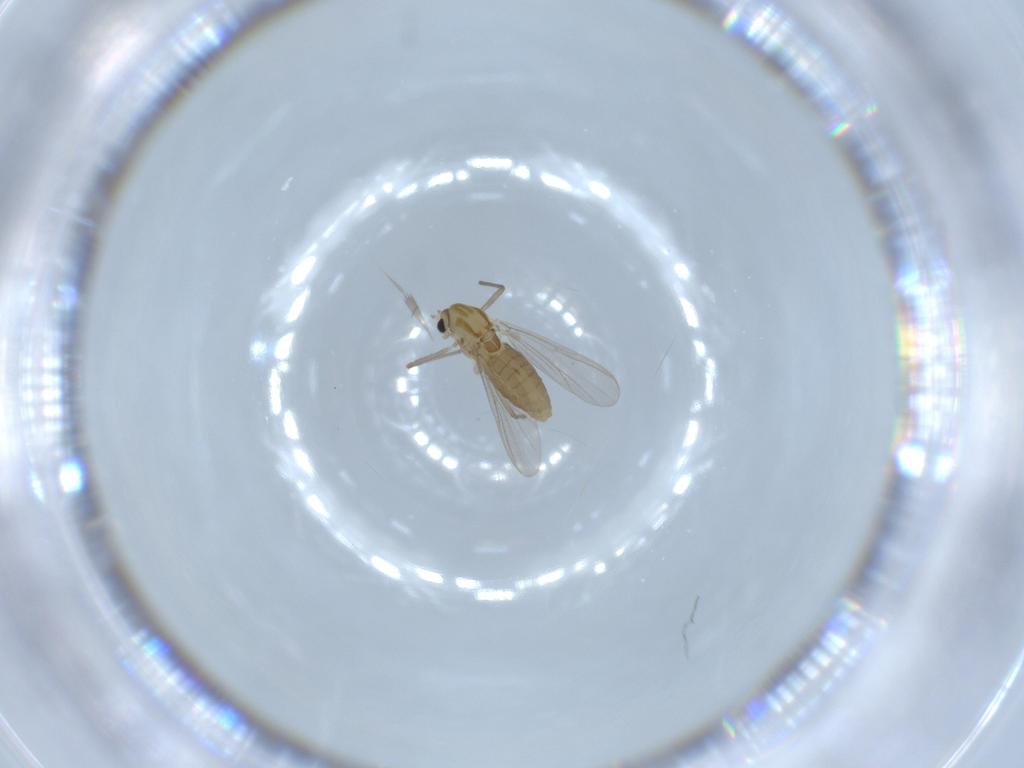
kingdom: Animalia
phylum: Arthropoda
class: Insecta
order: Diptera
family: Chironomidae
